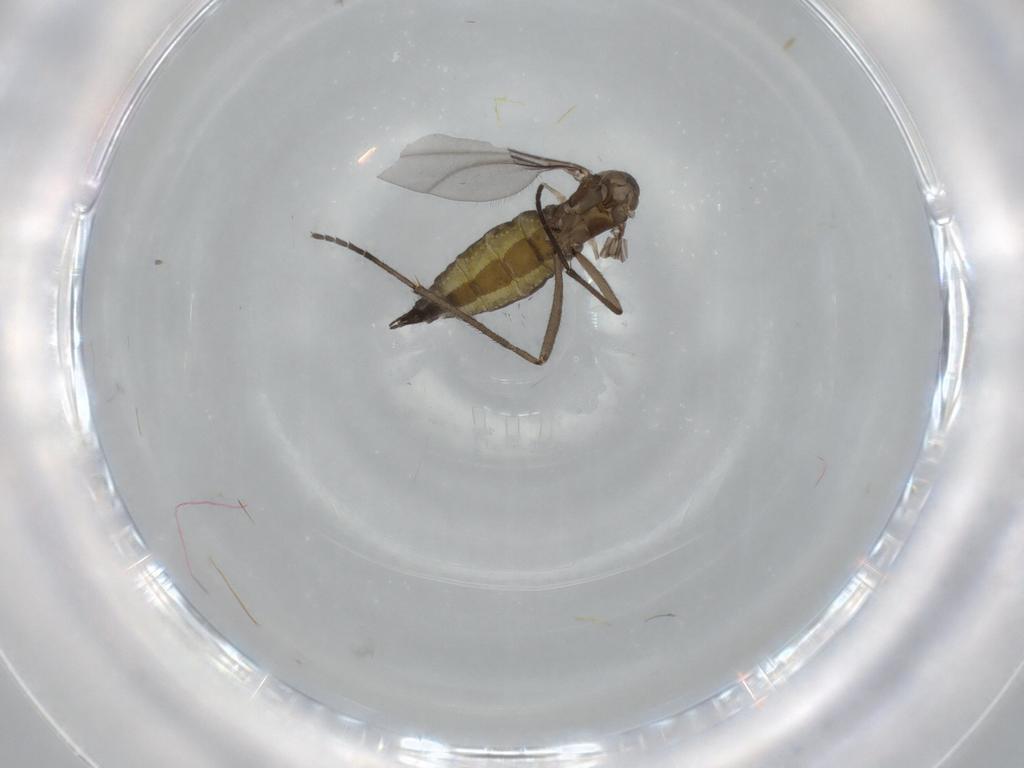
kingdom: Animalia
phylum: Arthropoda
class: Insecta
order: Diptera
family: Sciaridae
